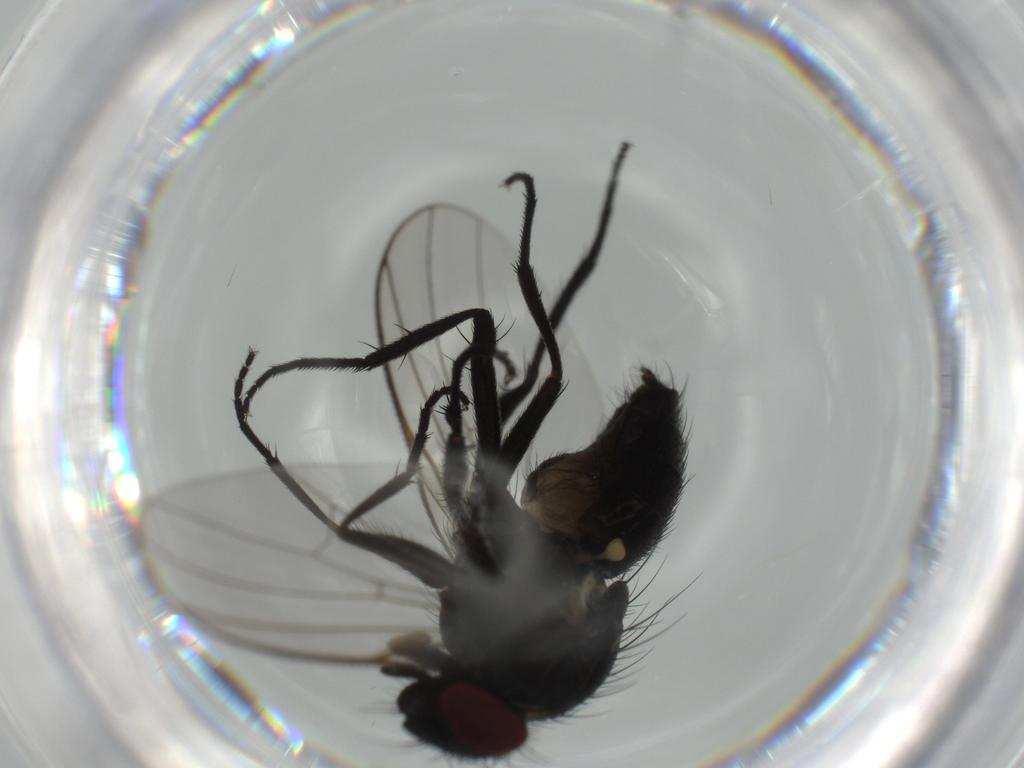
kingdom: Animalia
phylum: Arthropoda
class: Insecta
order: Diptera
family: Fannia
